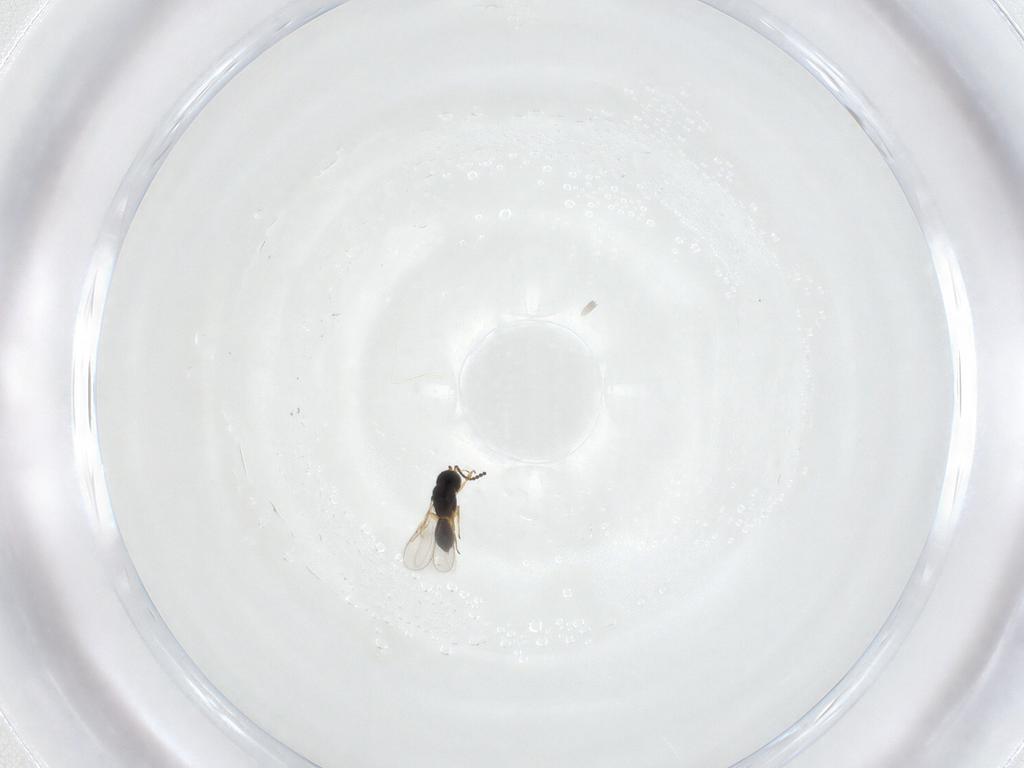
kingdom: Animalia
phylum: Arthropoda
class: Insecta
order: Hymenoptera
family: Scelionidae
